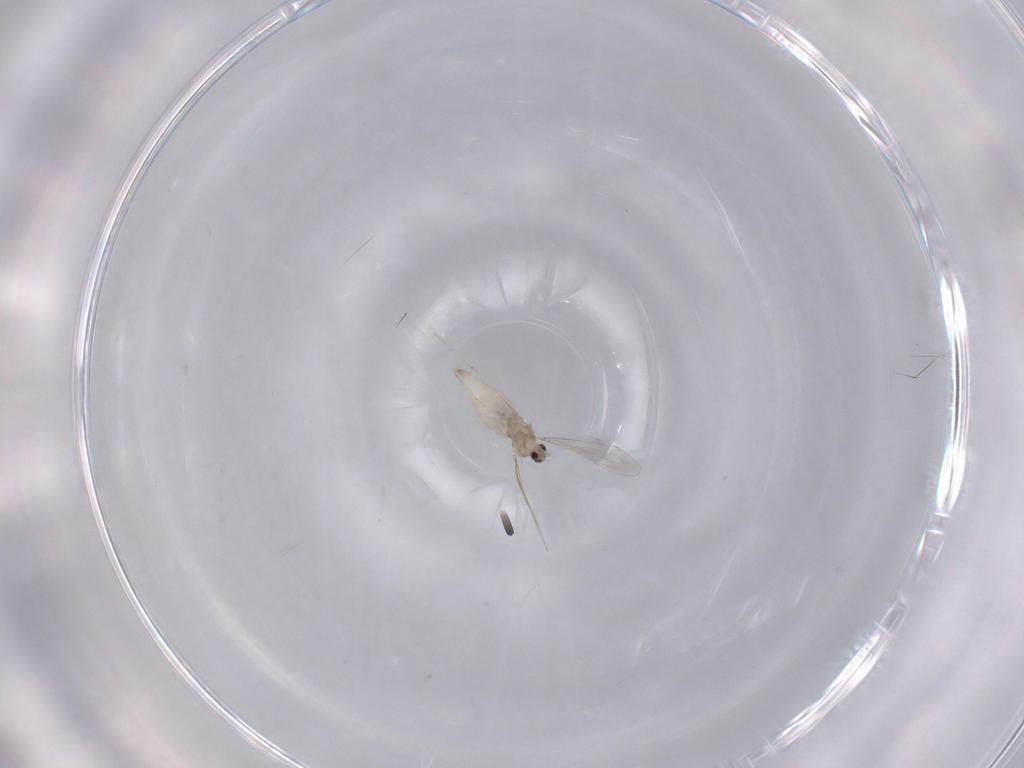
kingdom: Animalia
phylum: Arthropoda
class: Insecta
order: Diptera
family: Cecidomyiidae
